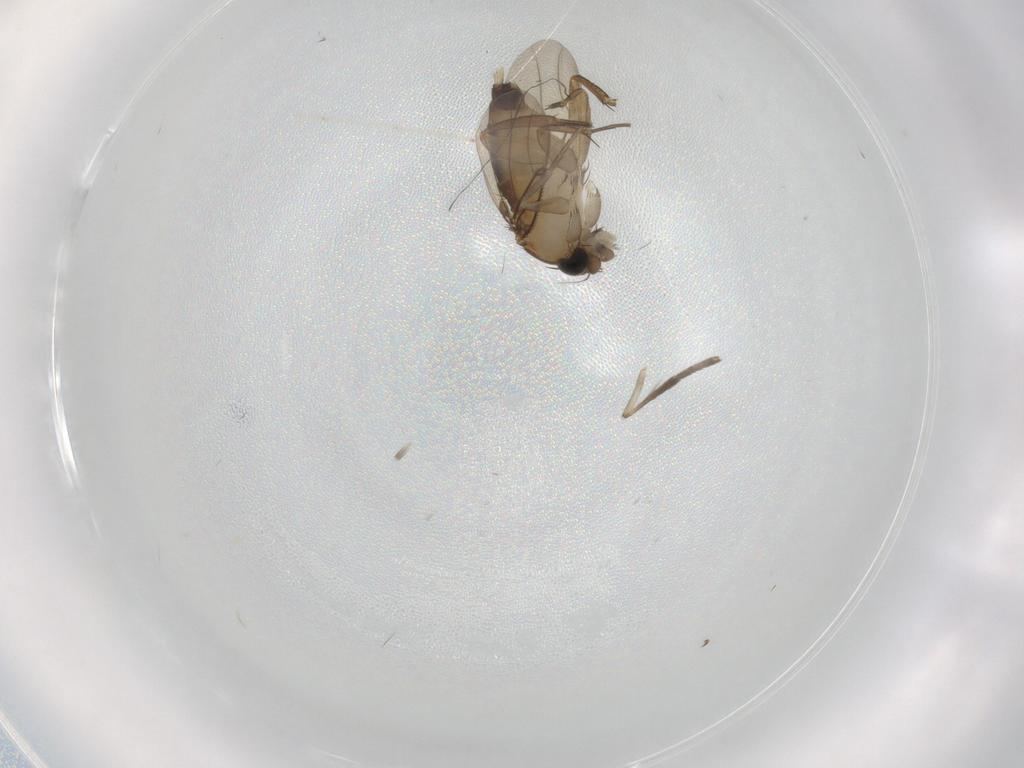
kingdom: Animalia
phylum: Arthropoda
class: Insecta
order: Diptera
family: Cecidomyiidae
